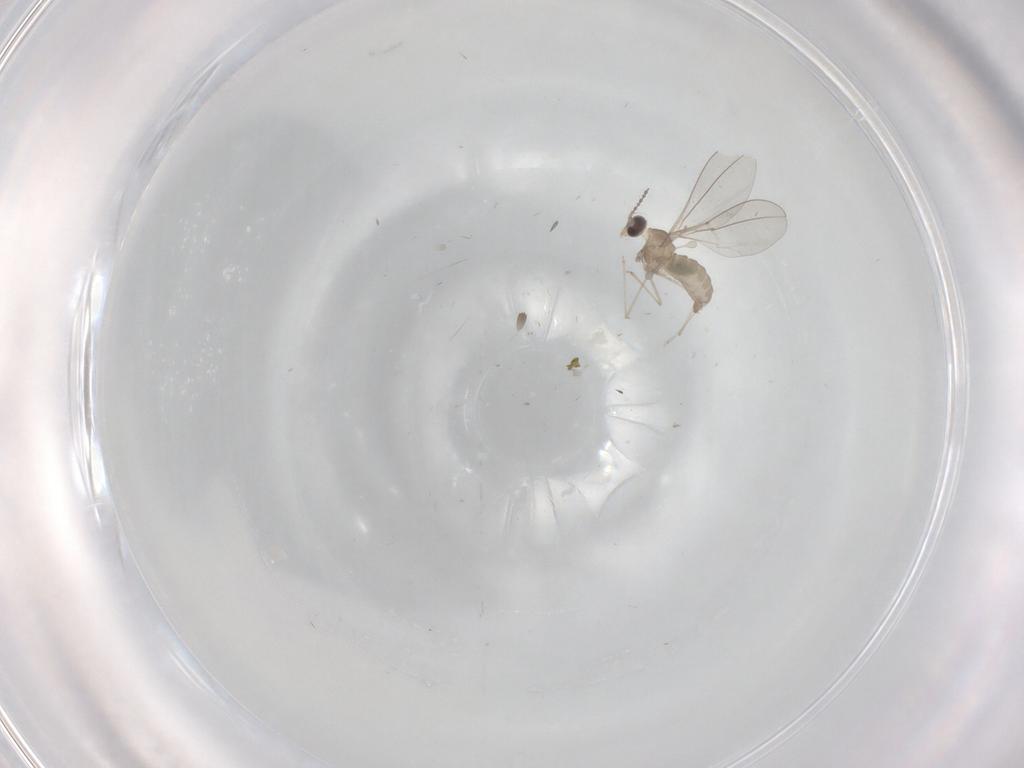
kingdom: Animalia
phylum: Arthropoda
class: Insecta
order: Diptera
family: Cecidomyiidae
